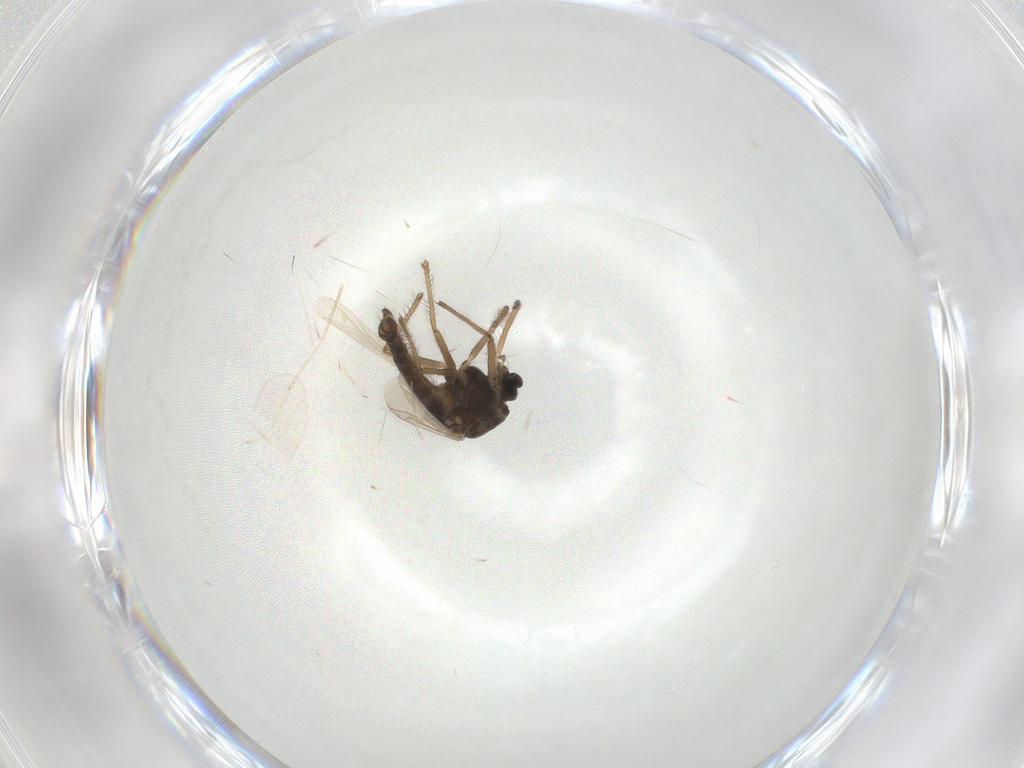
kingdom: Animalia
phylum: Arthropoda
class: Insecta
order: Diptera
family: Chironomidae
